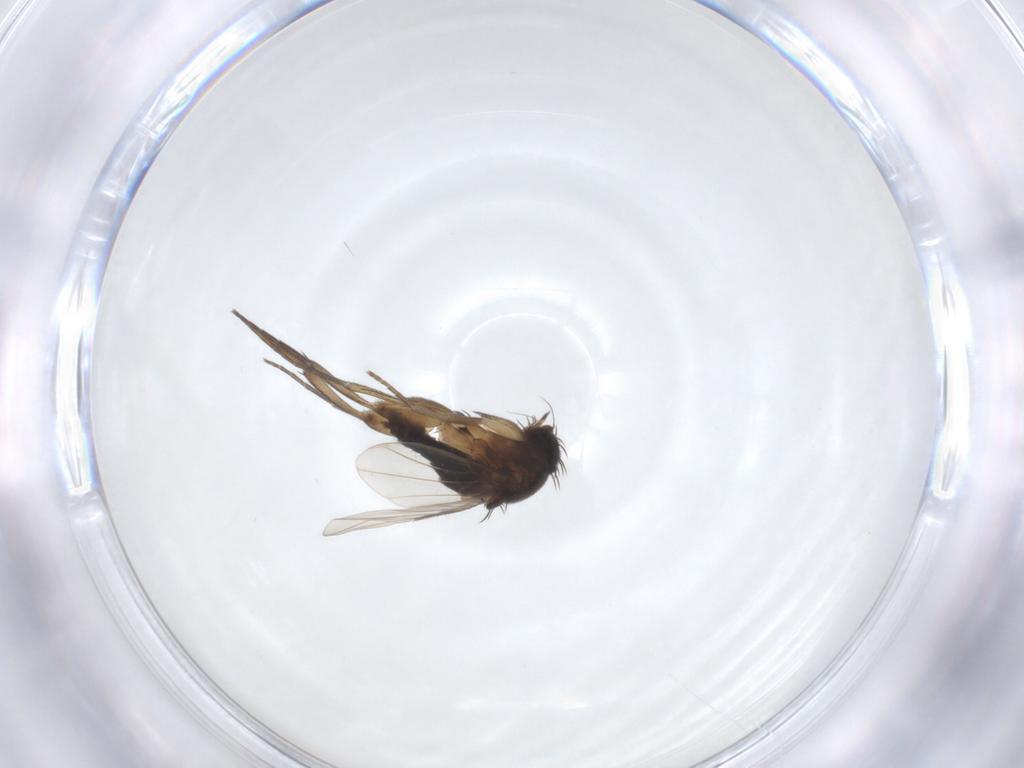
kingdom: Animalia
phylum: Arthropoda
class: Insecta
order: Diptera
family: Phoridae
